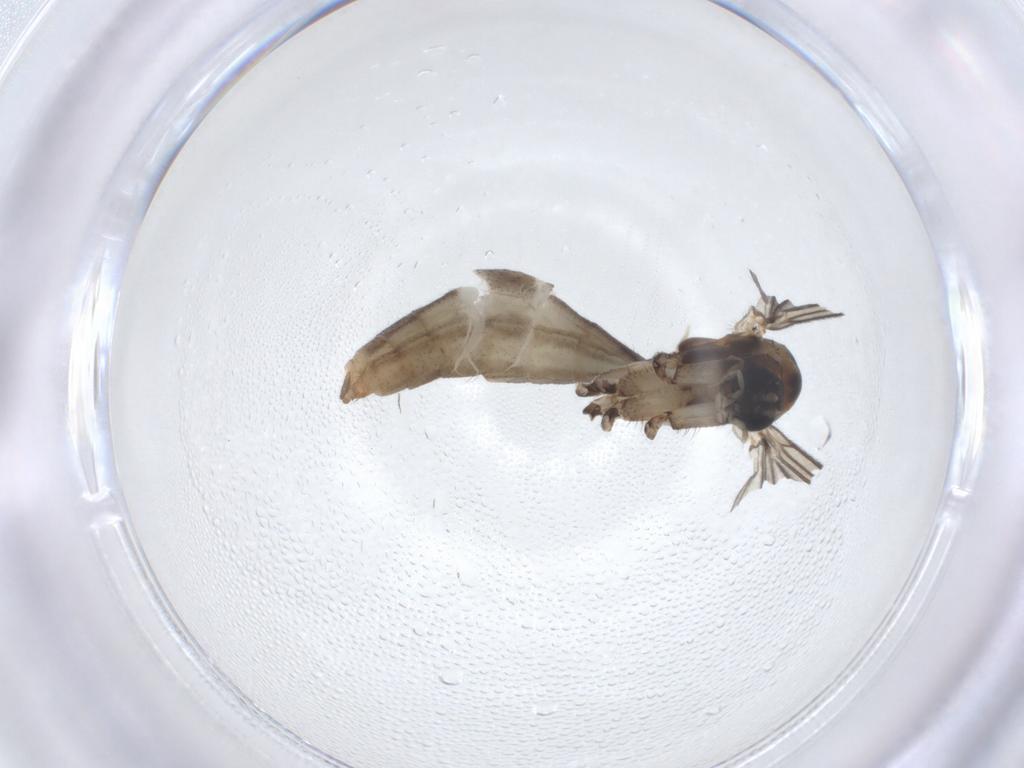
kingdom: Animalia
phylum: Arthropoda
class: Insecta
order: Diptera
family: Mycetophilidae
